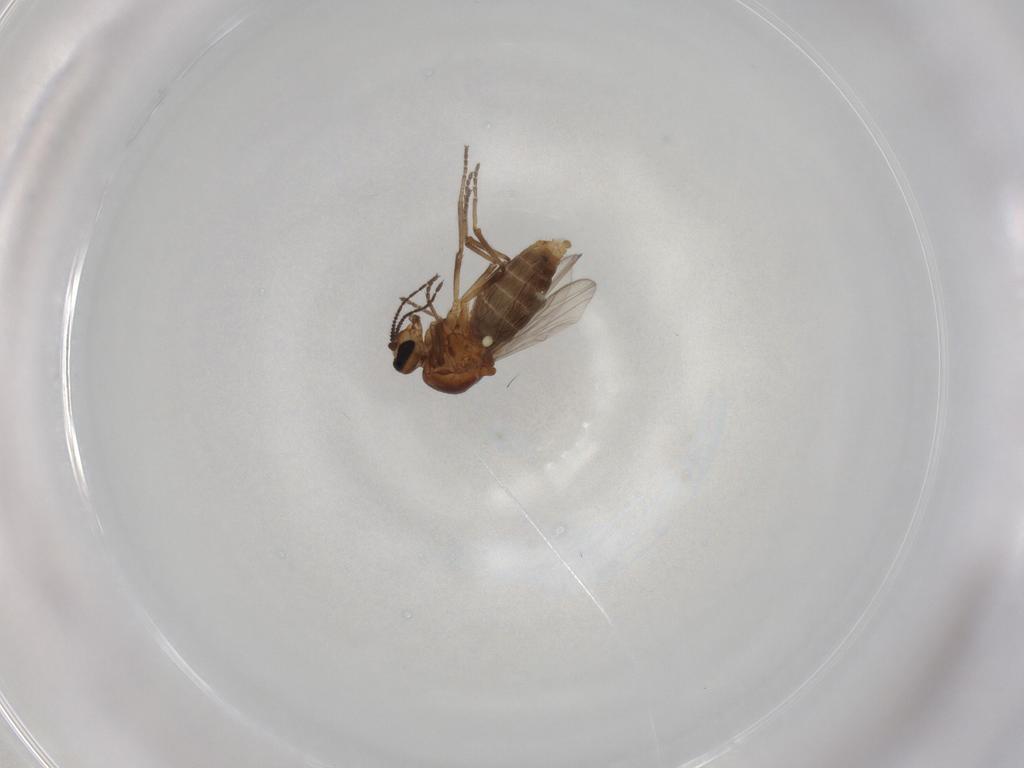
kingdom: Animalia
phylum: Arthropoda
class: Insecta
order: Diptera
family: Ceratopogonidae
